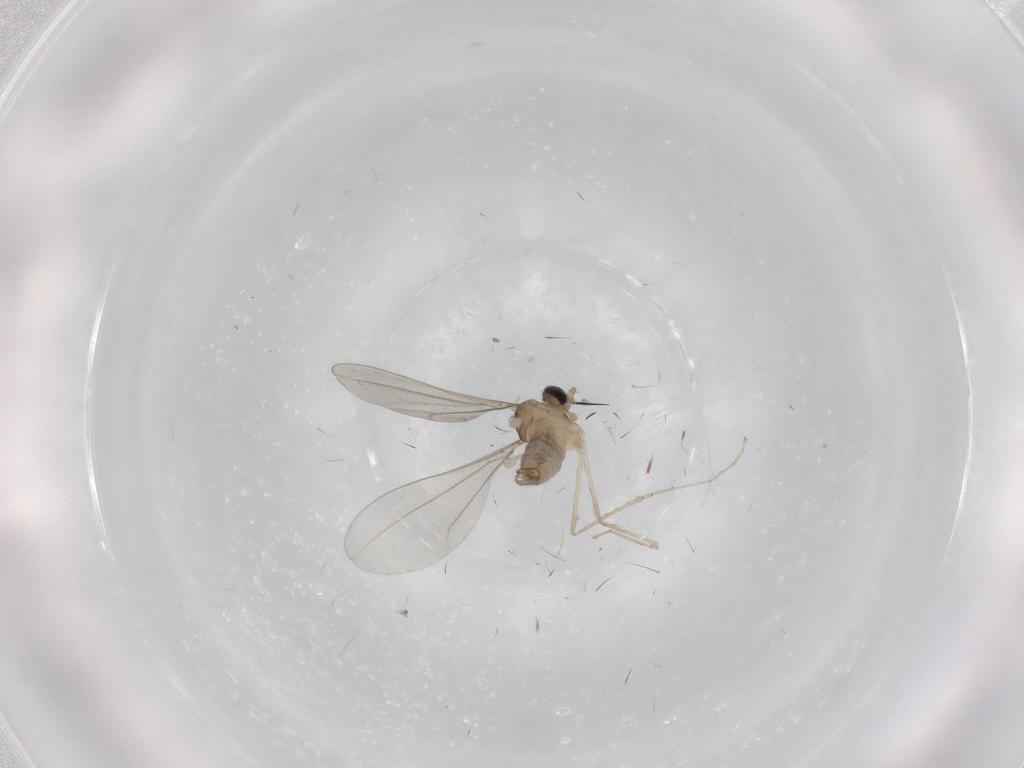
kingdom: Animalia
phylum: Arthropoda
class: Insecta
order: Diptera
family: Cecidomyiidae
